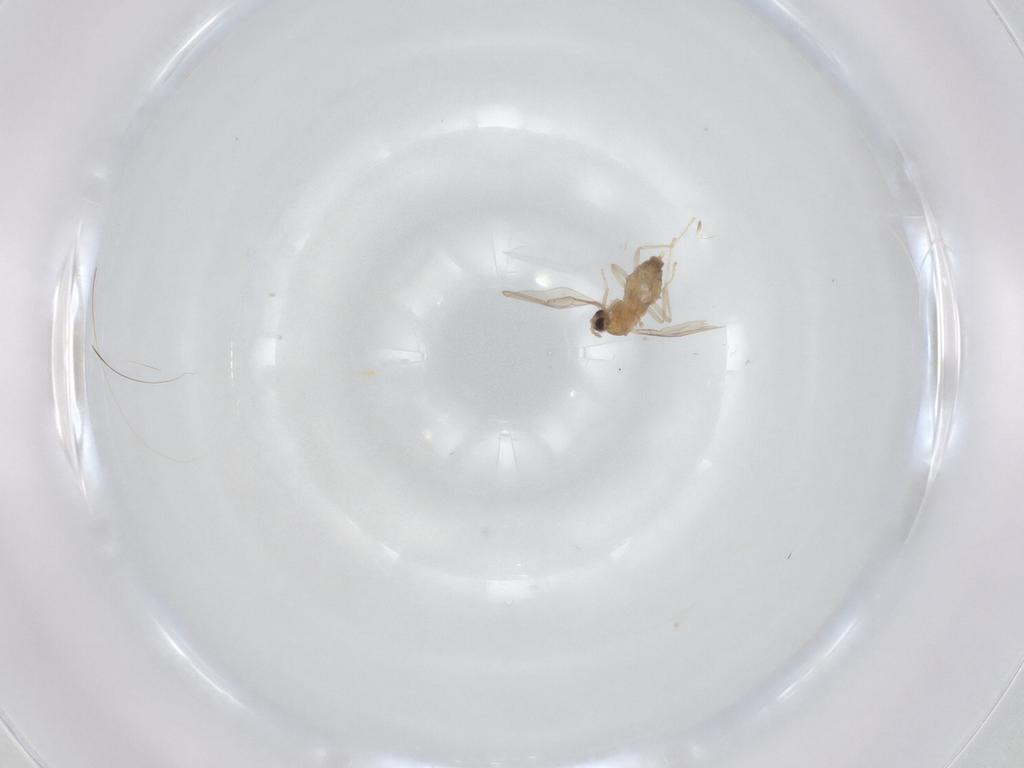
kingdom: Animalia
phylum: Arthropoda
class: Insecta
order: Diptera
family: Cecidomyiidae
